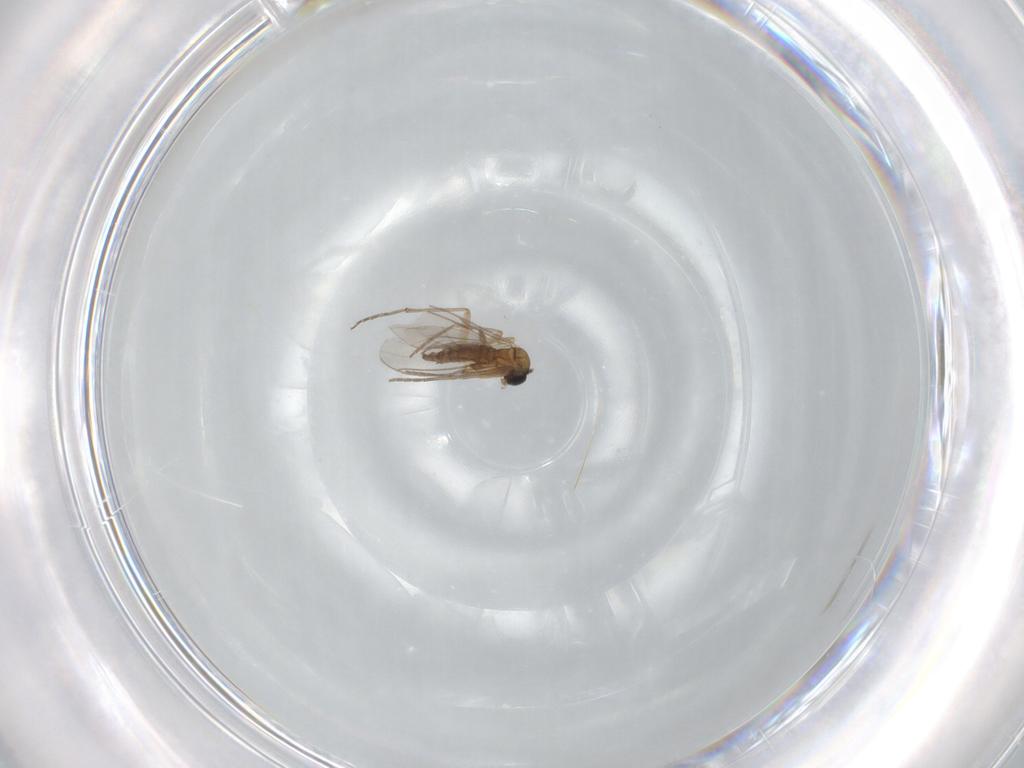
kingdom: Animalia
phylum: Arthropoda
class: Insecta
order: Diptera
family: Sciaridae
